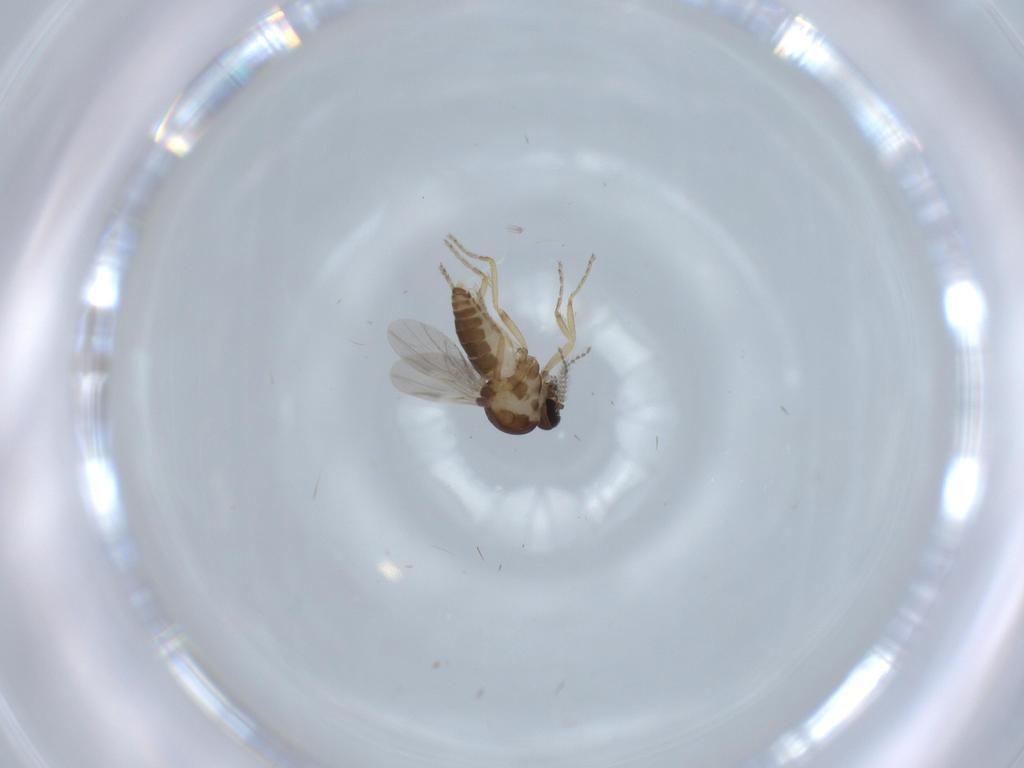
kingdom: Animalia
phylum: Arthropoda
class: Insecta
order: Diptera
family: Ceratopogonidae
